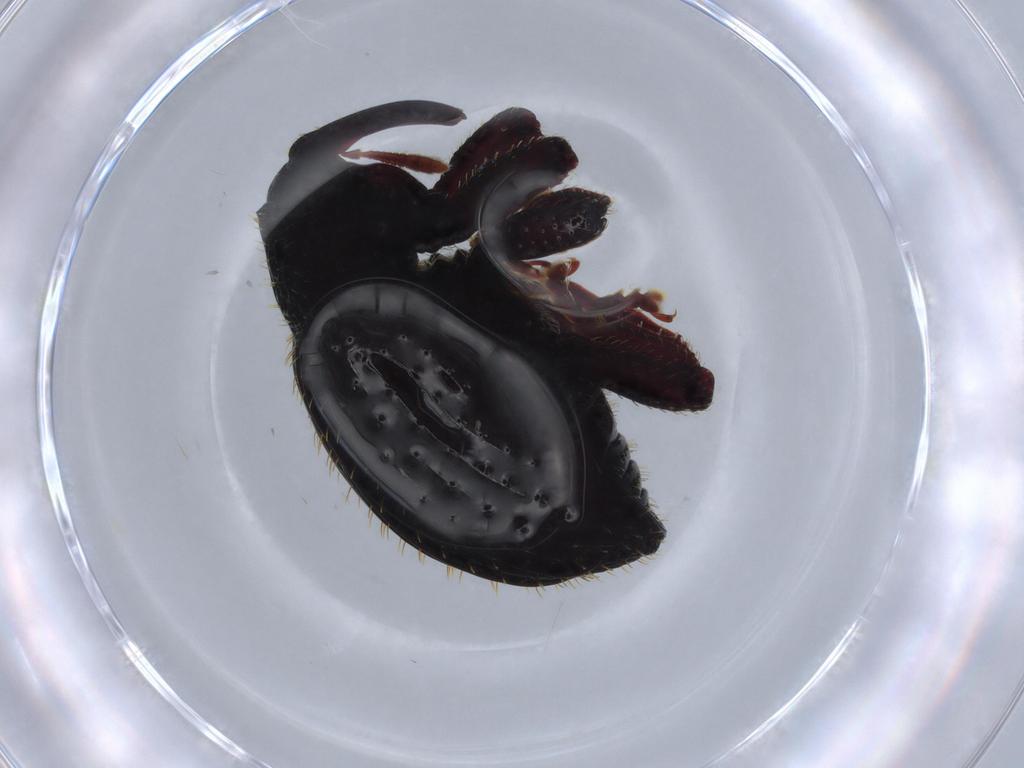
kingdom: Animalia
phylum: Arthropoda
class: Insecta
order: Coleoptera
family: Curculionidae
